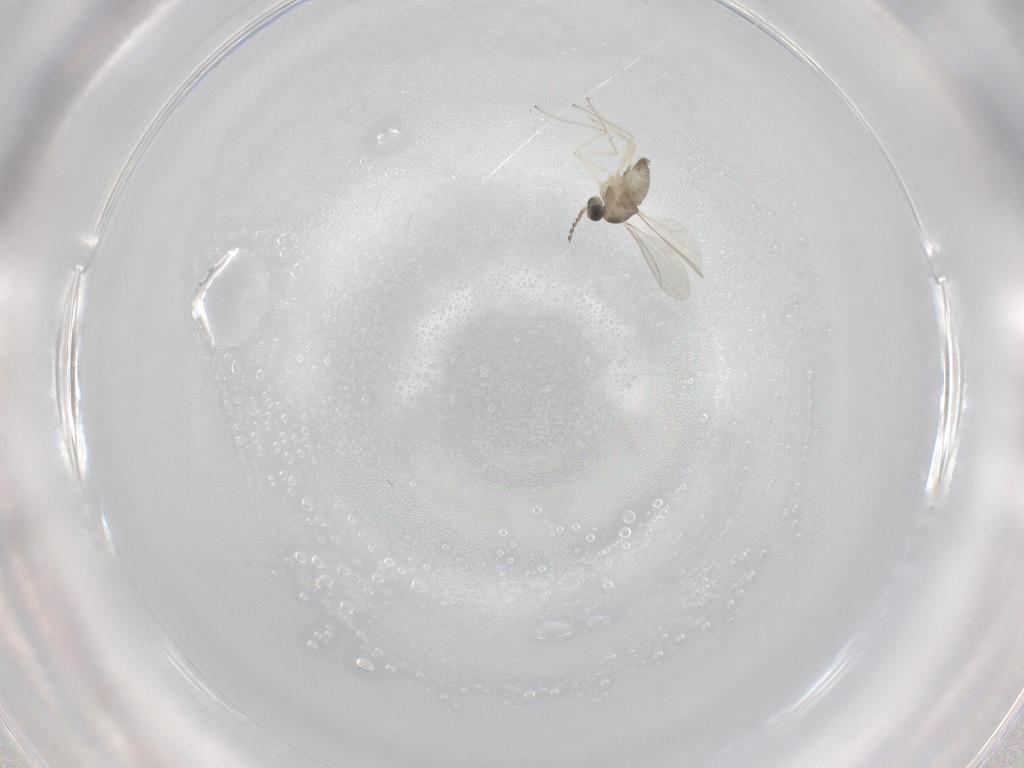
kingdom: Animalia
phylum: Arthropoda
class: Insecta
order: Diptera
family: Cecidomyiidae
